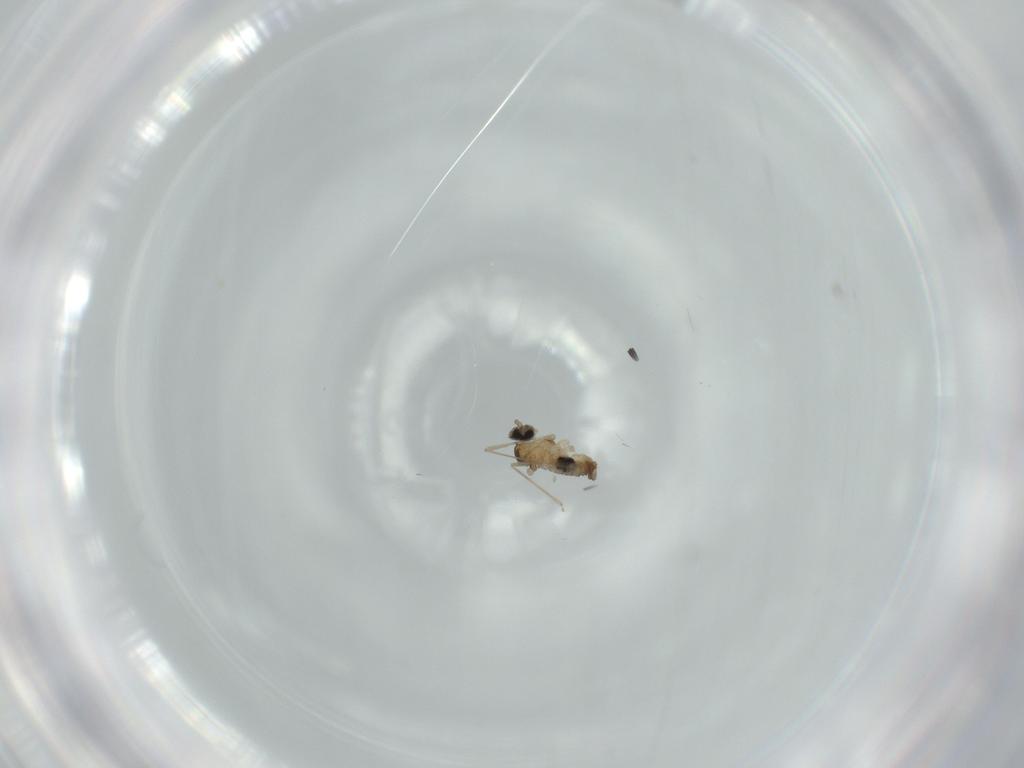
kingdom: Animalia
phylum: Arthropoda
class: Insecta
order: Diptera
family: Cecidomyiidae
